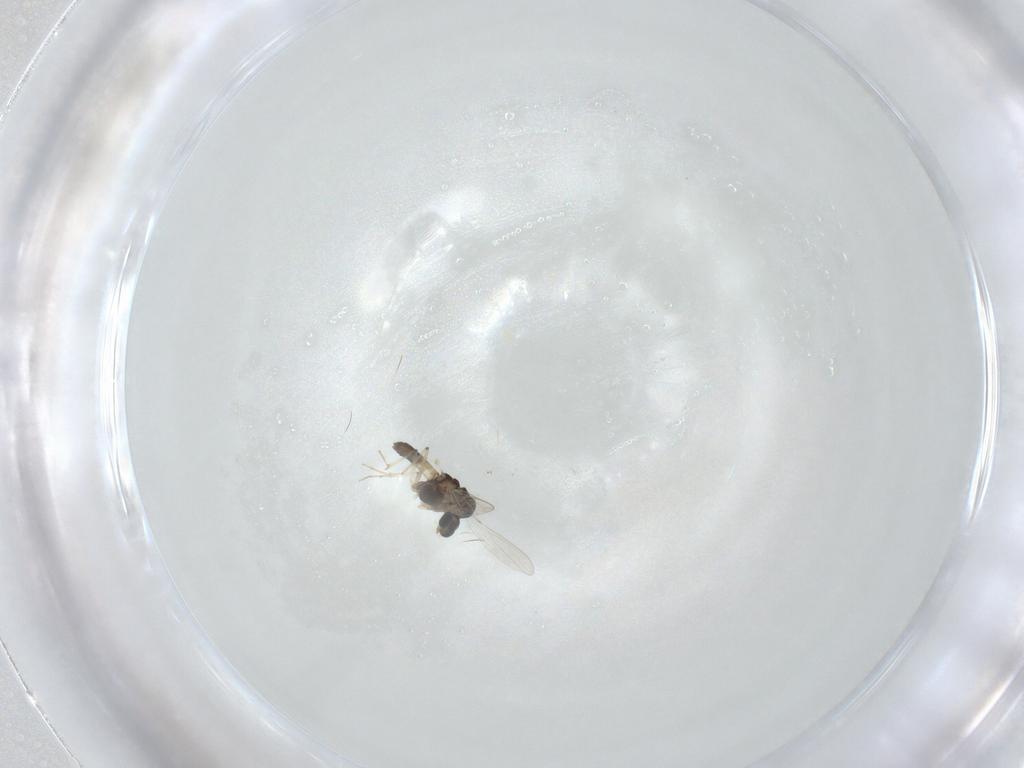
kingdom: Animalia
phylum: Arthropoda
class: Insecta
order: Diptera
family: Chironomidae
